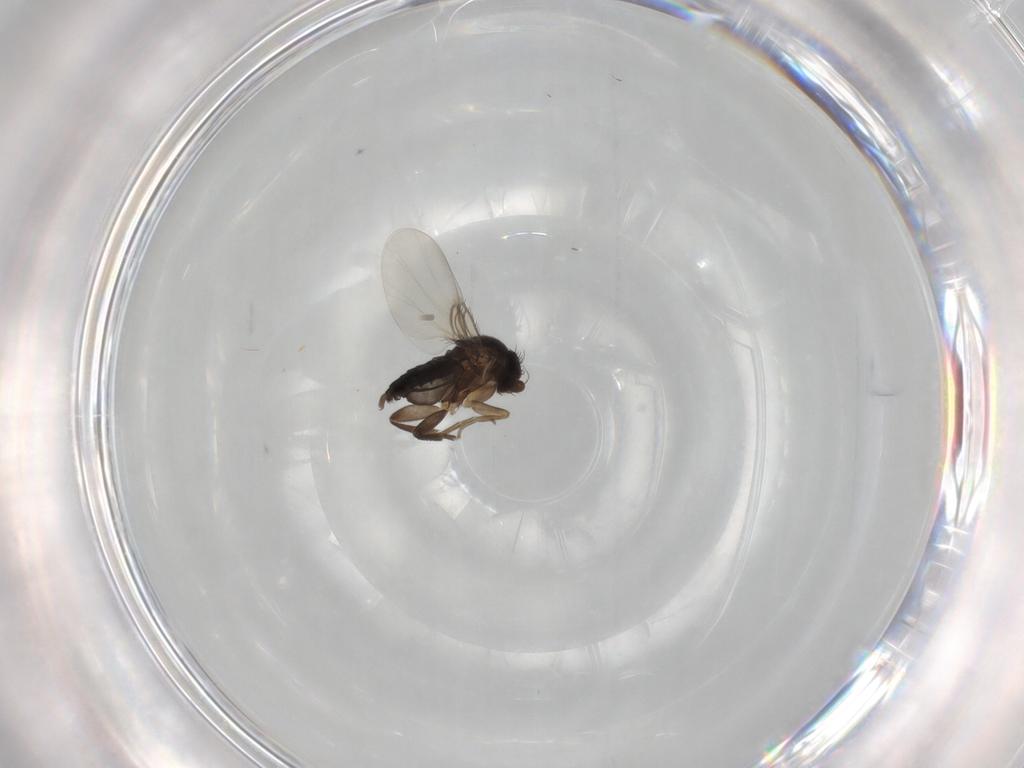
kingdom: Animalia
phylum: Arthropoda
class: Insecta
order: Diptera
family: Phoridae
